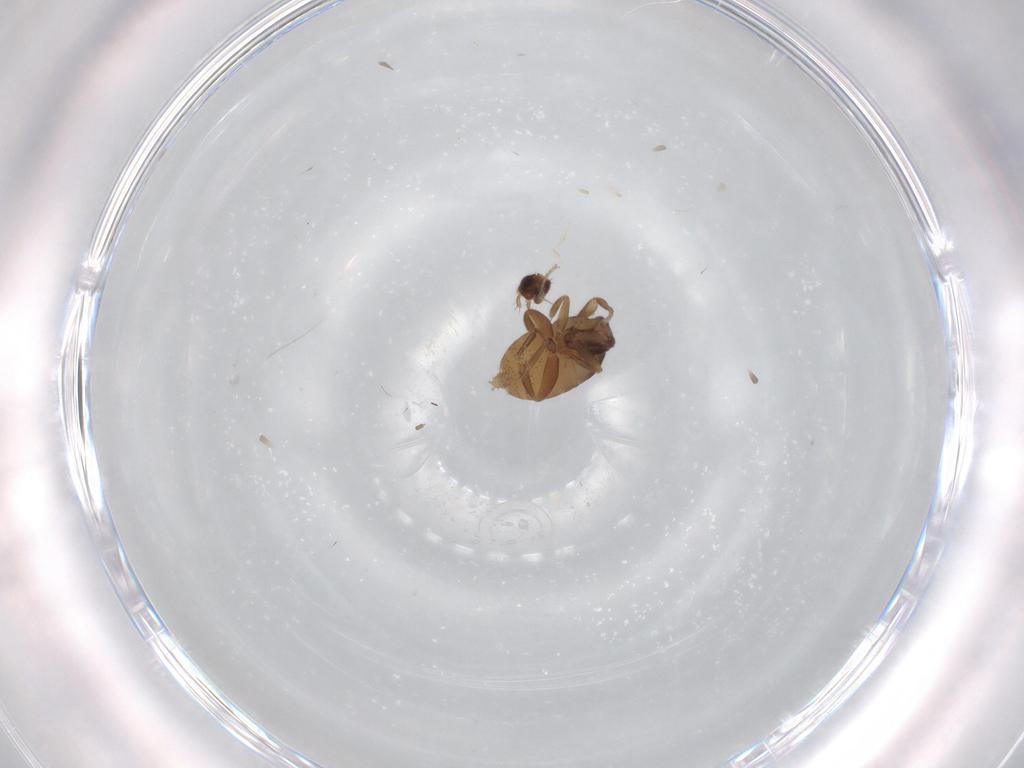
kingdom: Animalia
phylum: Arthropoda
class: Insecta
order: Diptera
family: Phoridae
